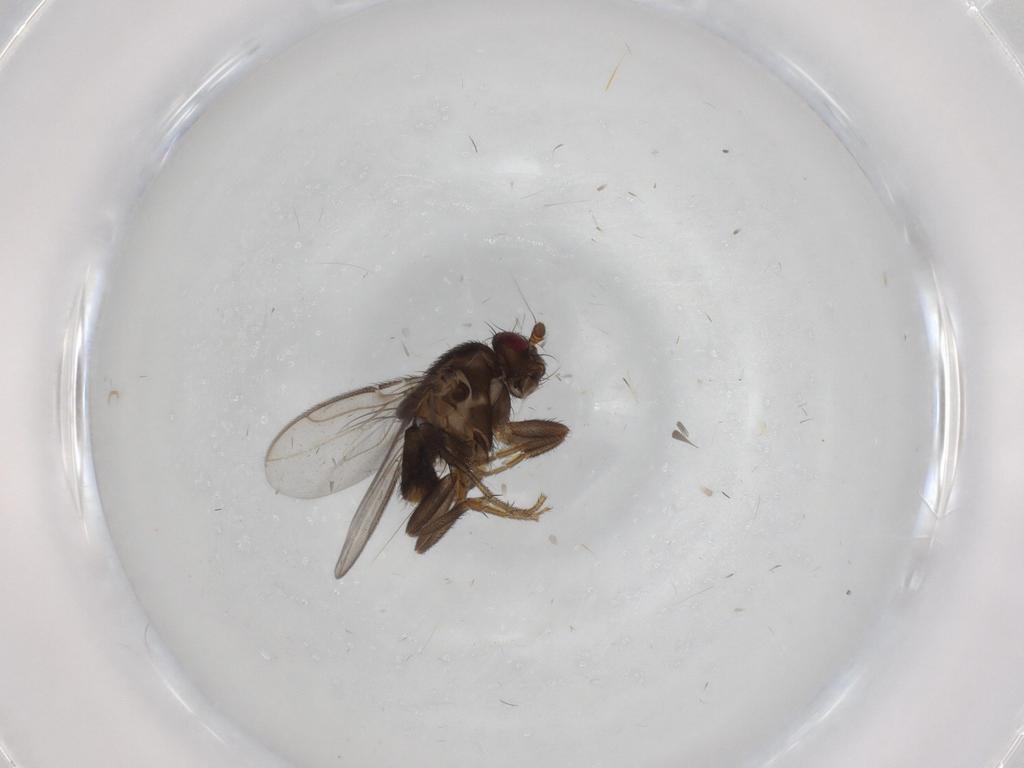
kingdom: Animalia
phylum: Arthropoda
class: Insecta
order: Diptera
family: Sphaeroceridae
